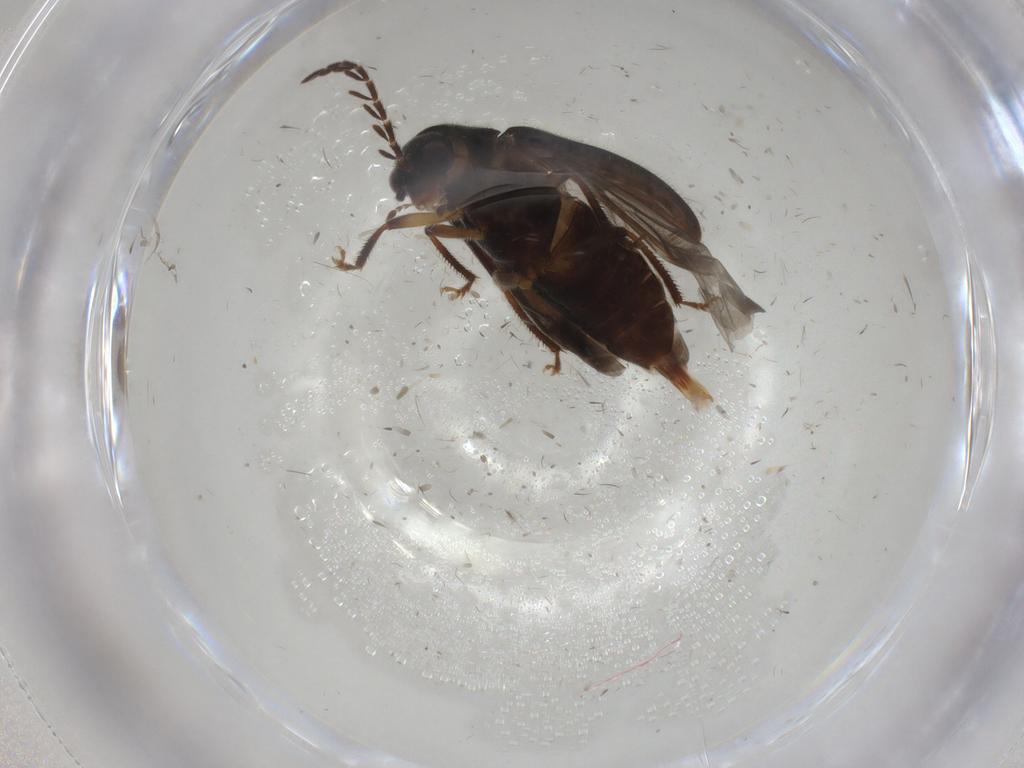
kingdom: Animalia
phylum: Arthropoda
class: Insecta
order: Coleoptera
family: Ptilodactylidae
